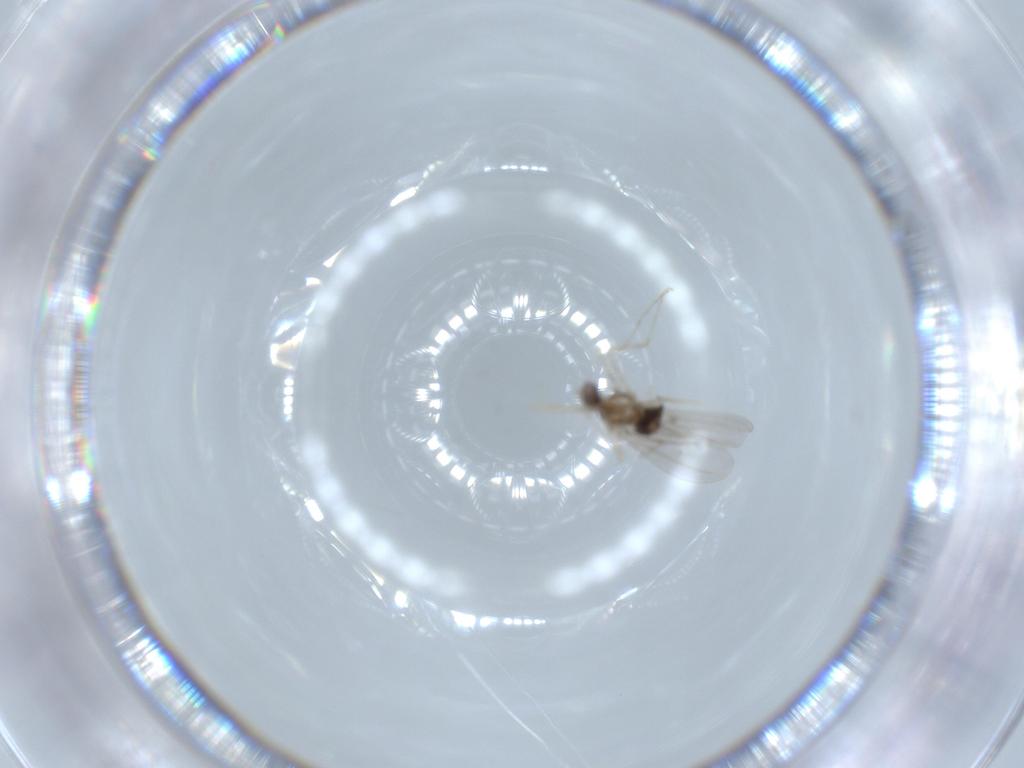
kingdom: Animalia
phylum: Arthropoda
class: Insecta
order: Diptera
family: Cecidomyiidae
